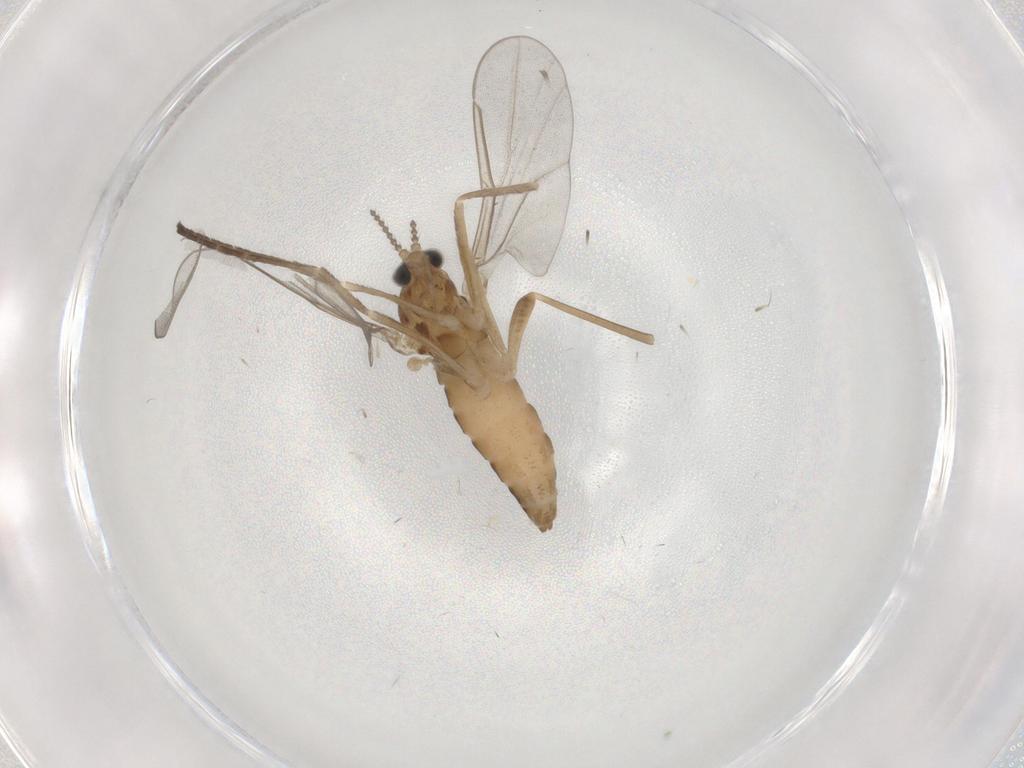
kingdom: Animalia
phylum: Arthropoda
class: Insecta
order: Diptera
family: Cecidomyiidae
